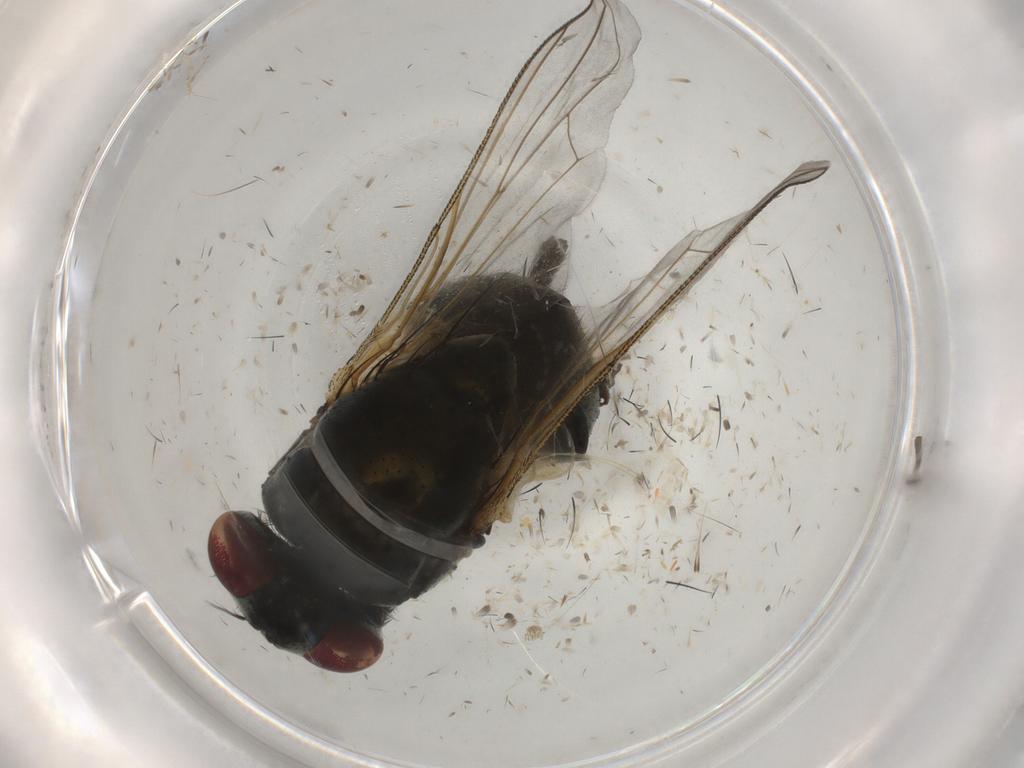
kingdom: Animalia
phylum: Arthropoda
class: Insecta
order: Diptera
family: Muscidae
